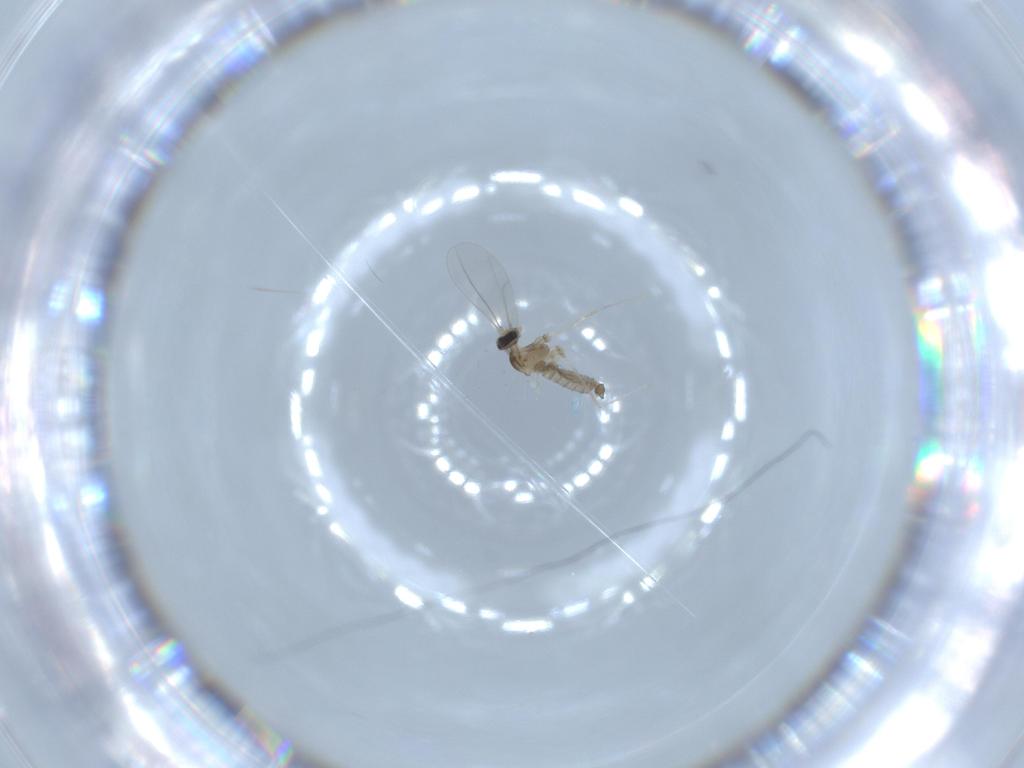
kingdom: Animalia
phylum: Arthropoda
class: Insecta
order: Diptera
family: Cecidomyiidae
